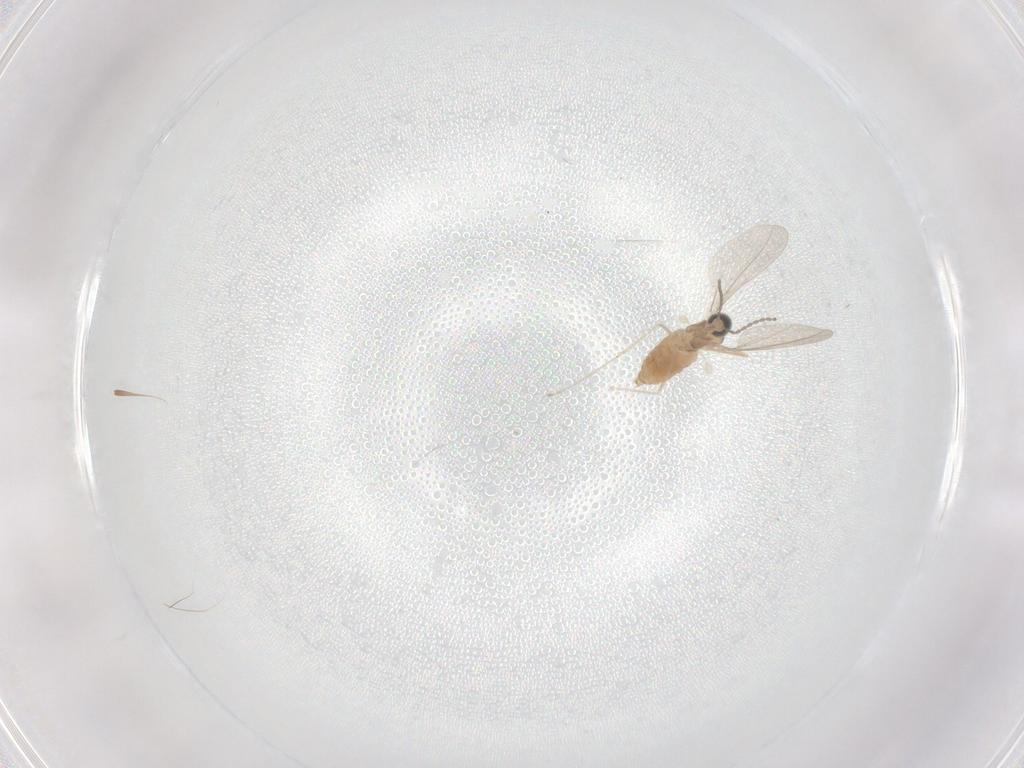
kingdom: Animalia
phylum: Arthropoda
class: Insecta
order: Diptera
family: Cecidomyiidae
